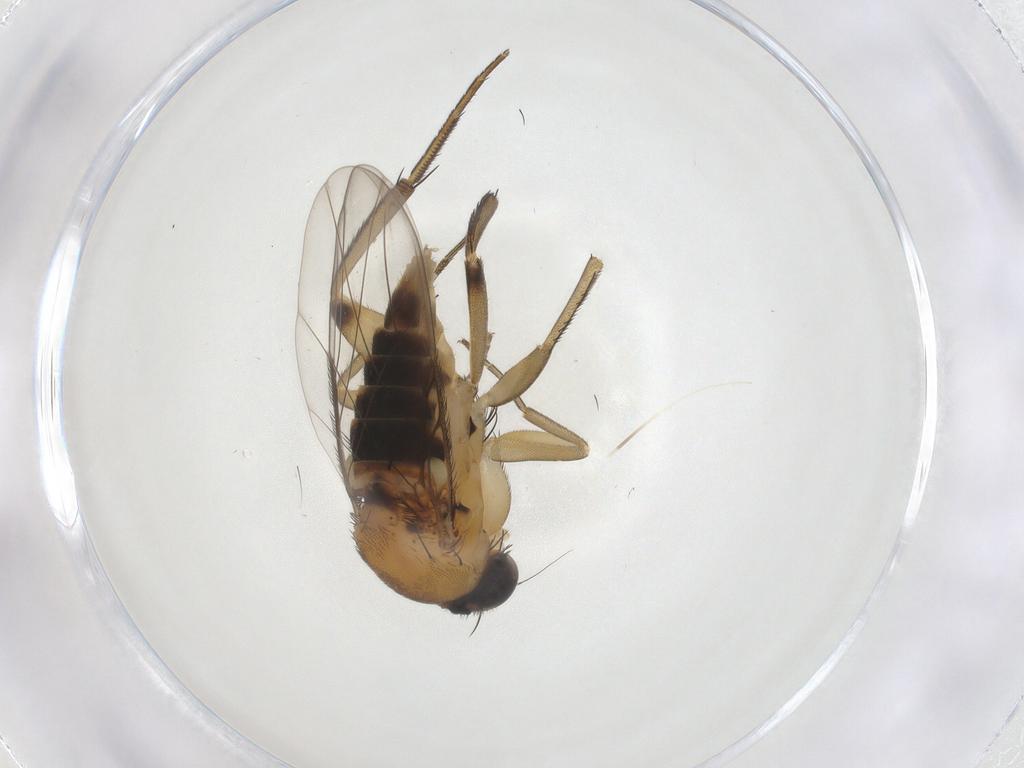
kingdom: Animalia
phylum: Arthropoda
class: Insecta
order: Diptera
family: Phoridae
